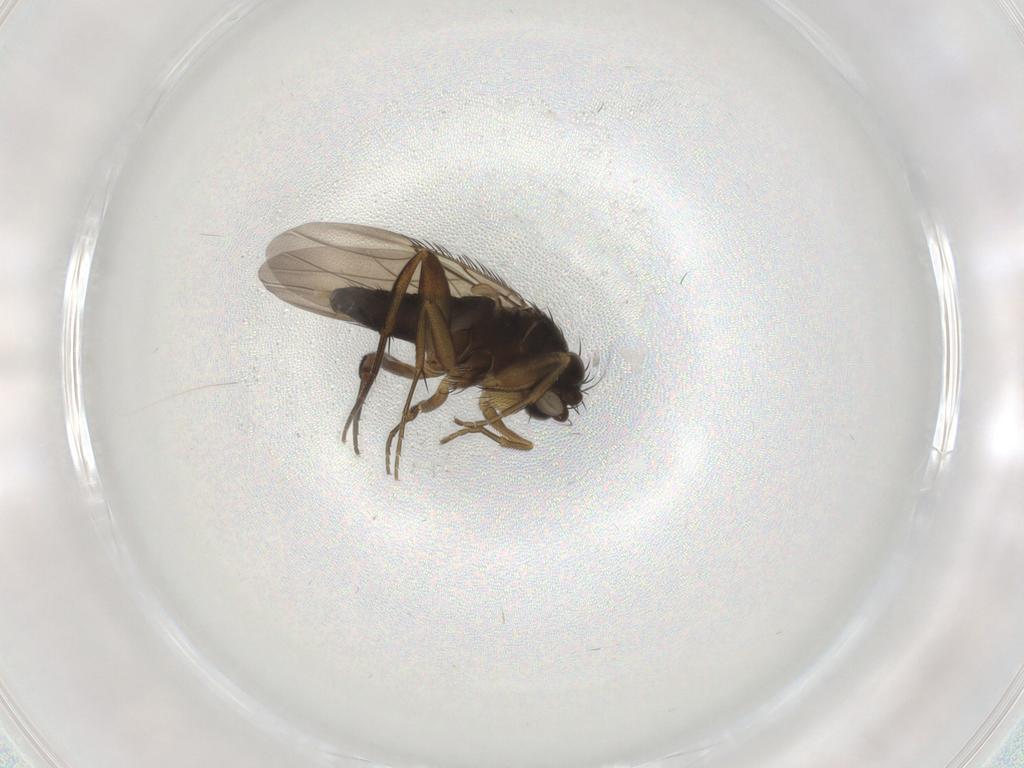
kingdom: Animalia
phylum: Arthropoda
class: Insecta
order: Diptera
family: Phoridae
